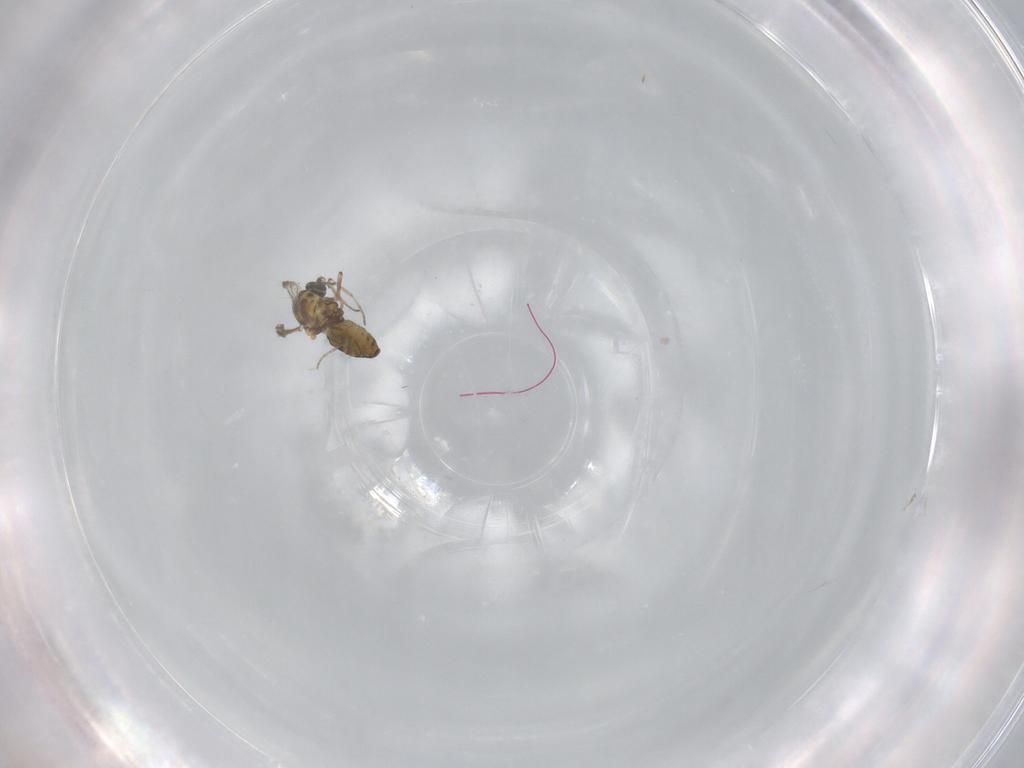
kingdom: Animalia
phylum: Arthropoda
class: Insecta
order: Diptera
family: Ceratopogonidae
